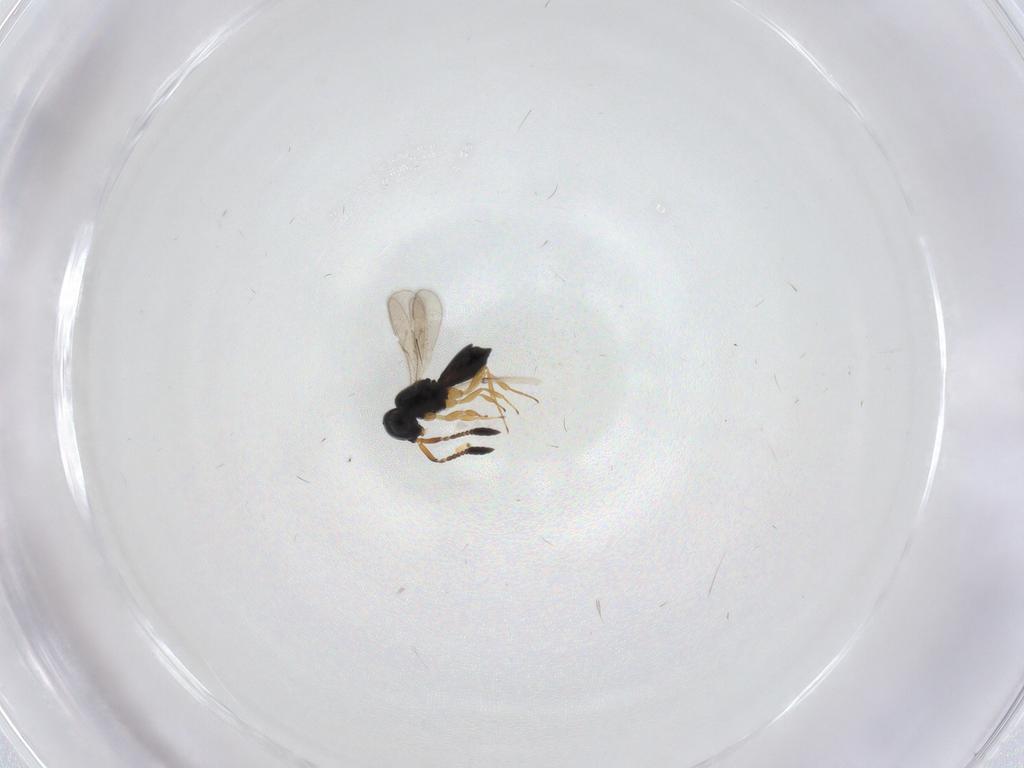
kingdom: Animalia
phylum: Arthropoda
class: Insecta
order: Hymenoptera
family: Scelionidae
